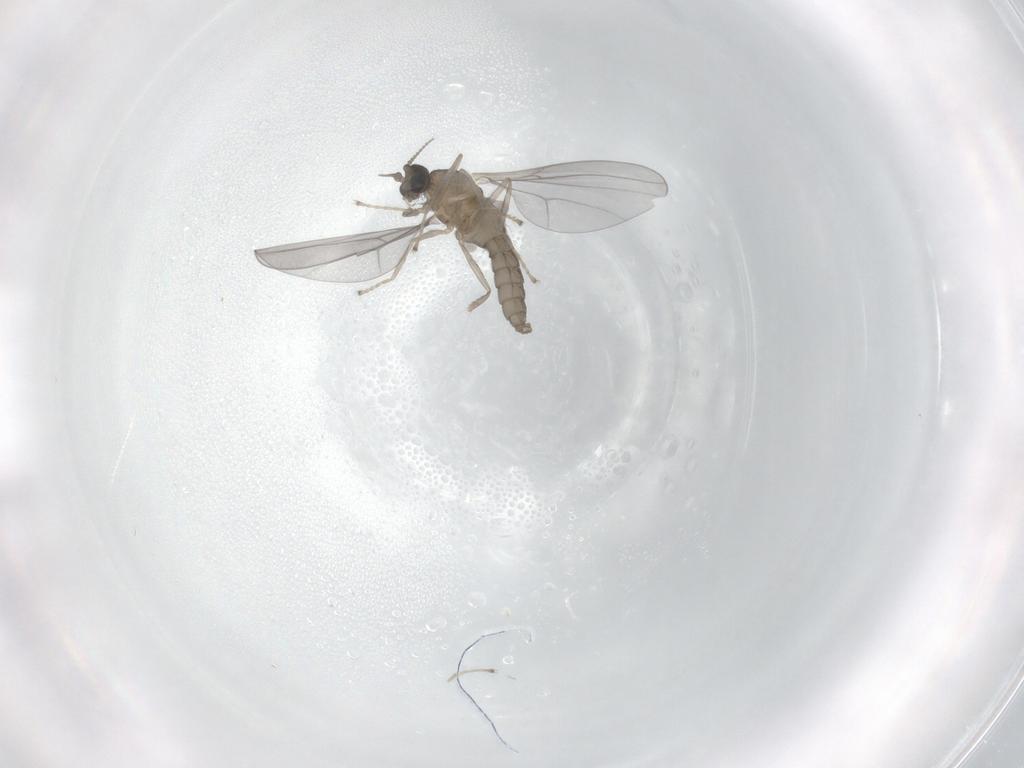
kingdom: Animalia
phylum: Arthropoda
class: Insecta
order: Diptera
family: Cecidomyiidae
